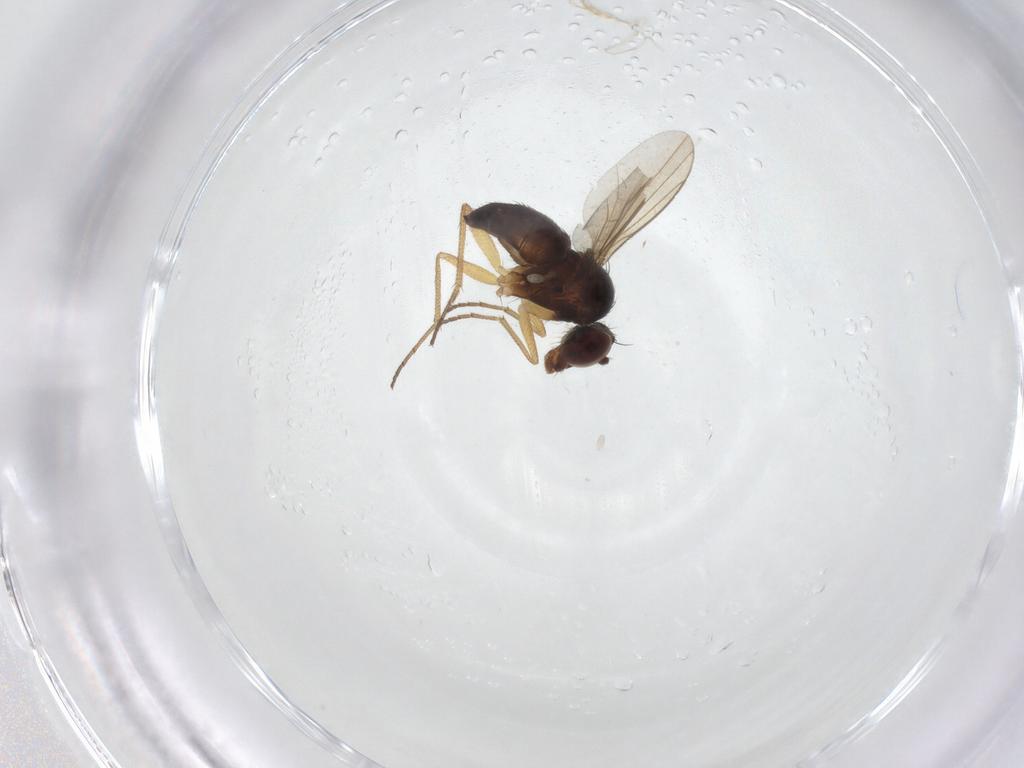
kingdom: Animalia
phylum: Arthropoda
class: Insecta
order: Diptera
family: Dolichopodidae
